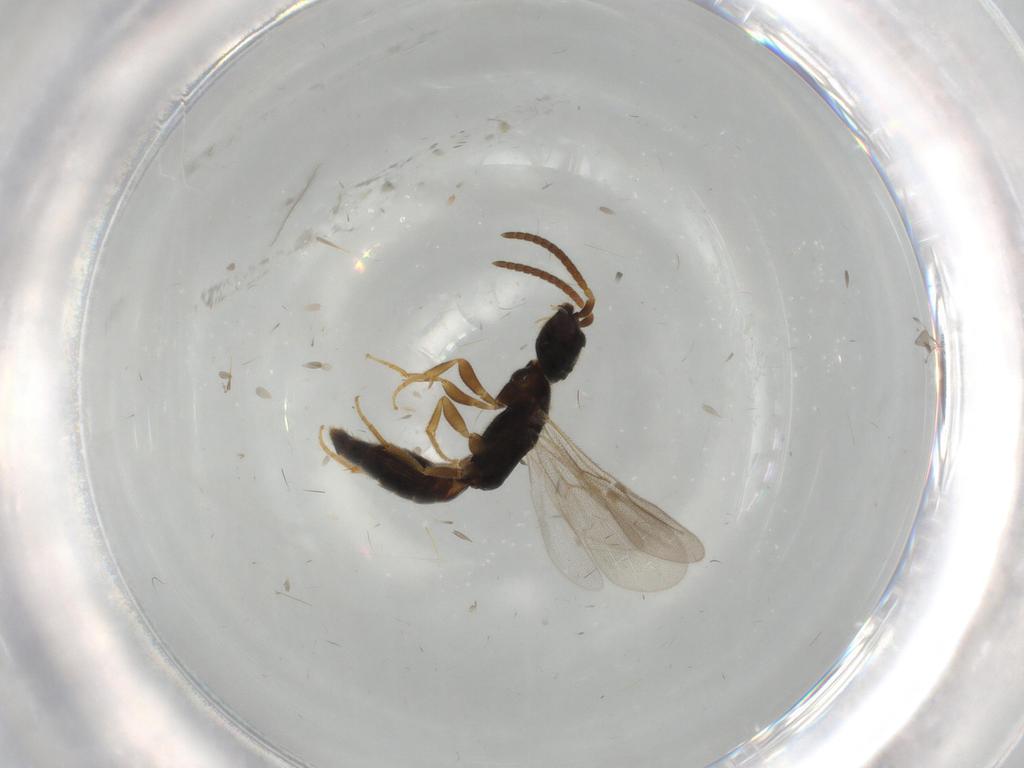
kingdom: Animalia
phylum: Arthropoda
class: Insecta
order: Hymenoptera
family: Bethylidae
